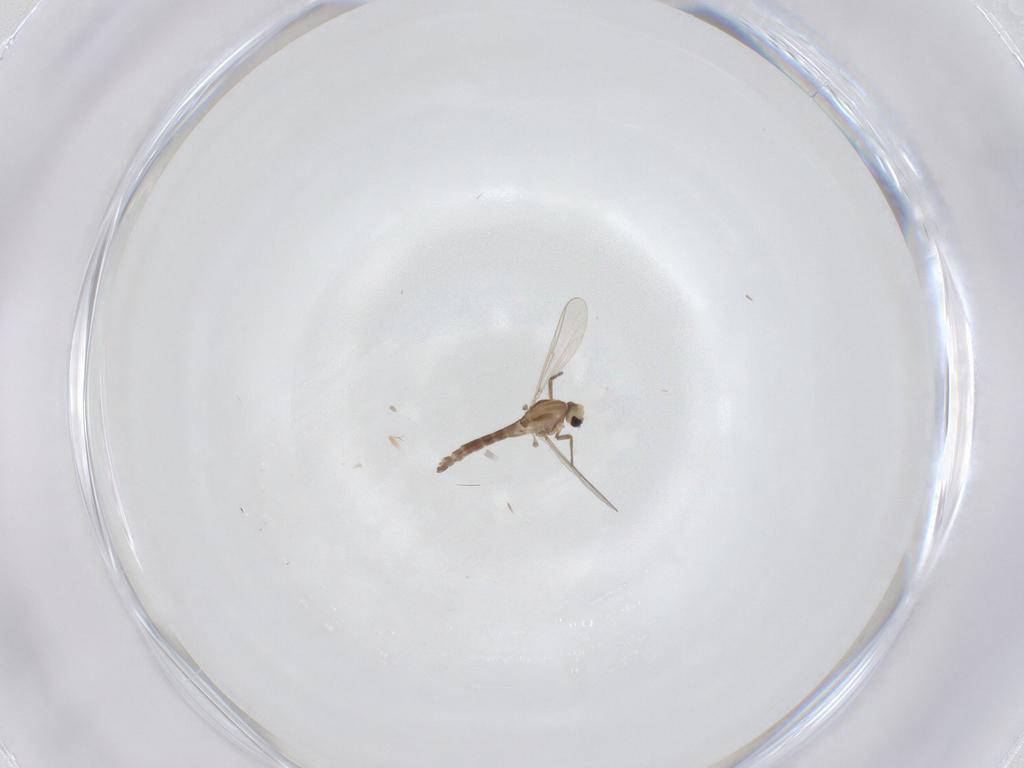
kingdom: Animalia
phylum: Arthropoda
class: Insecta
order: Diptera
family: Chironomidae
